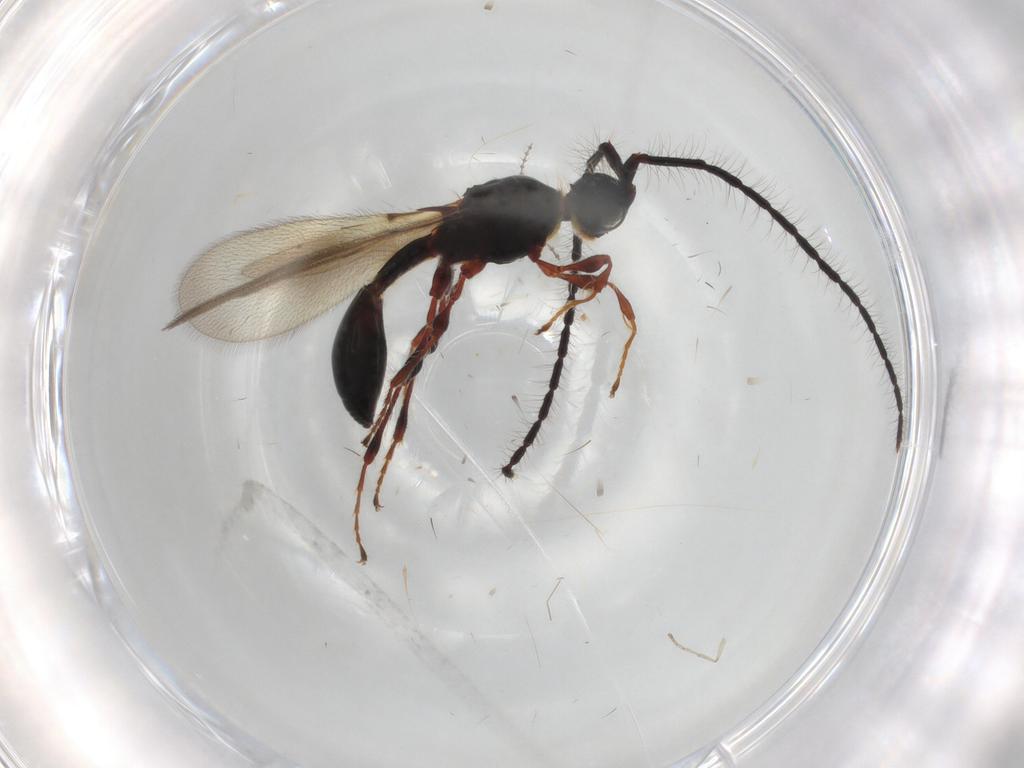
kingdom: Animalia
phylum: Arthropoda
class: Insecta
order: Hymenoptera
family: Diapriidae
